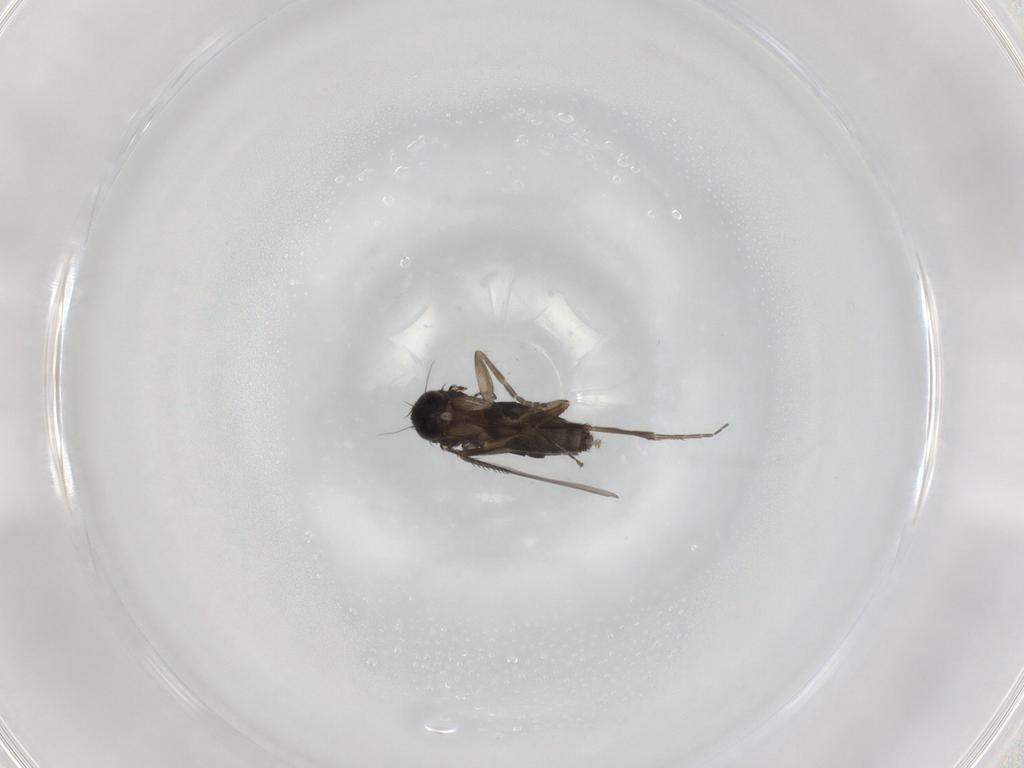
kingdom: Animalia
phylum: Arthropoda
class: Insecta
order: Diptera
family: Phoridae
